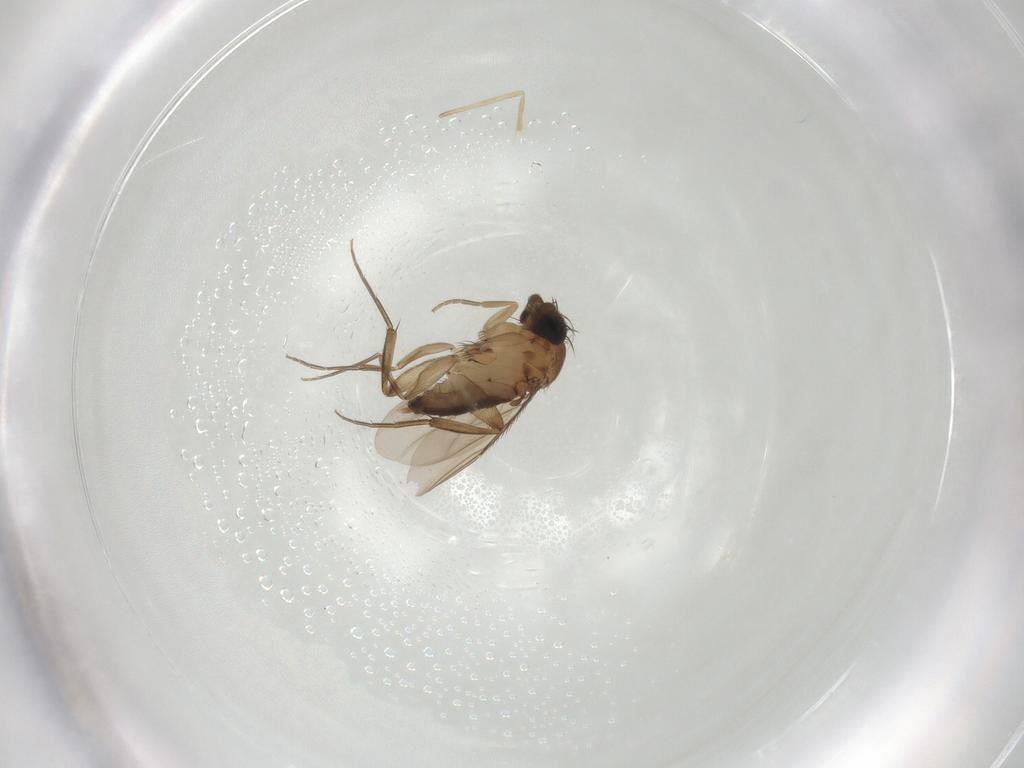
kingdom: Animalia
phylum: Arthropoda
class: Insecta
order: Diptera
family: Phoridae
